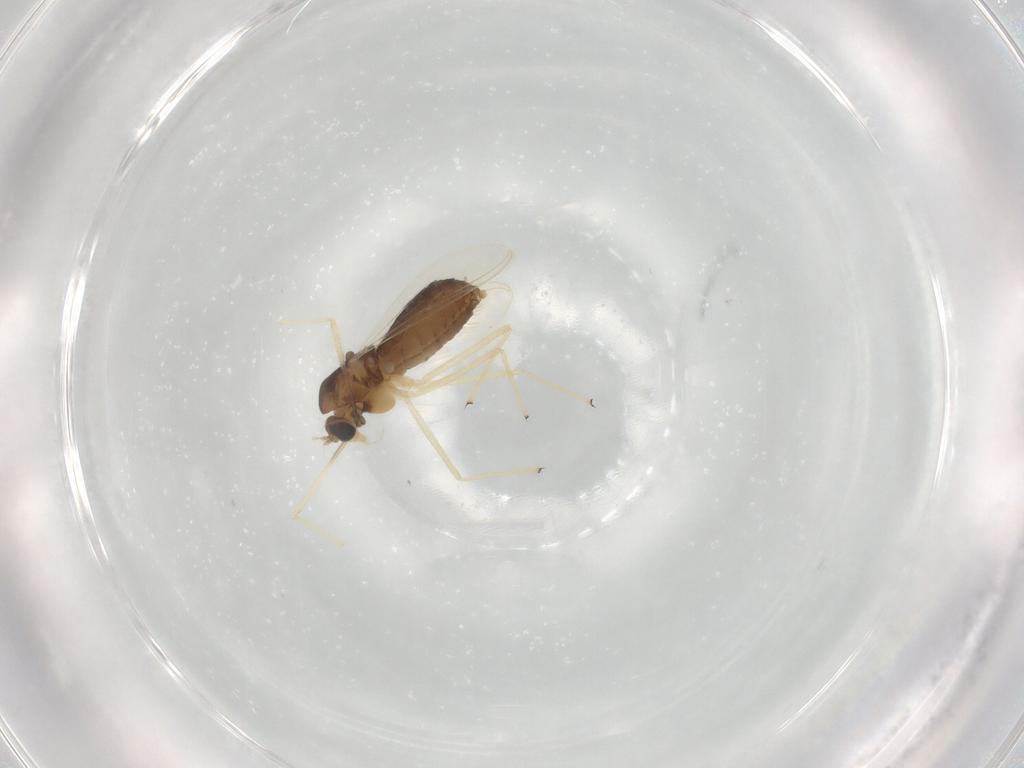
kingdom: Animalia
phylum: Arthropoda
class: Insecta
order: Diptera
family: Chironomidae
